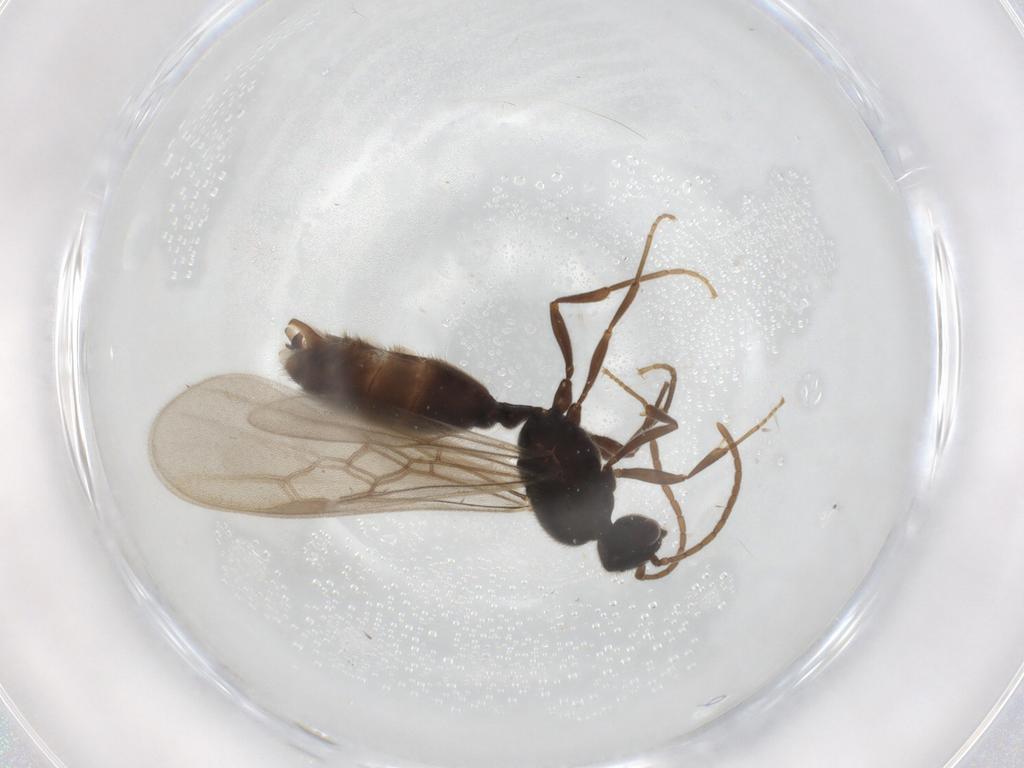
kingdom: Animalia
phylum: Arthropoda
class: Insecta
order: Hymenoptera
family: Formicidae
